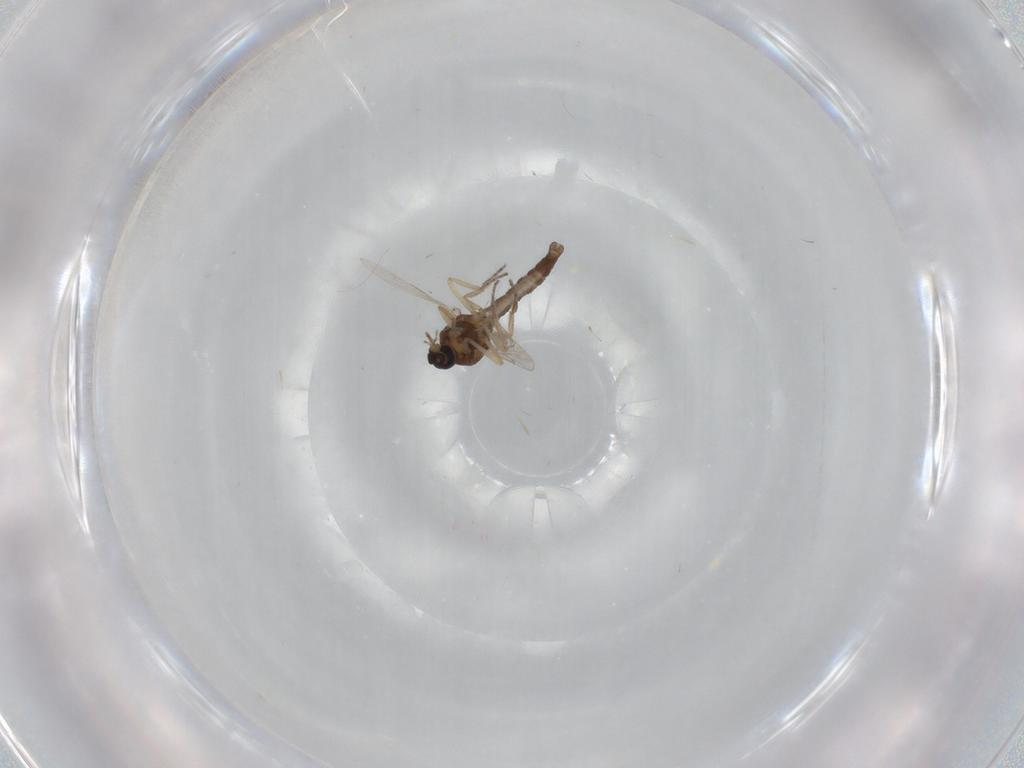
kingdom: Animalia
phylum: Arthropoda
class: Insecta
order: Diptera
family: Ceratopogonidae
